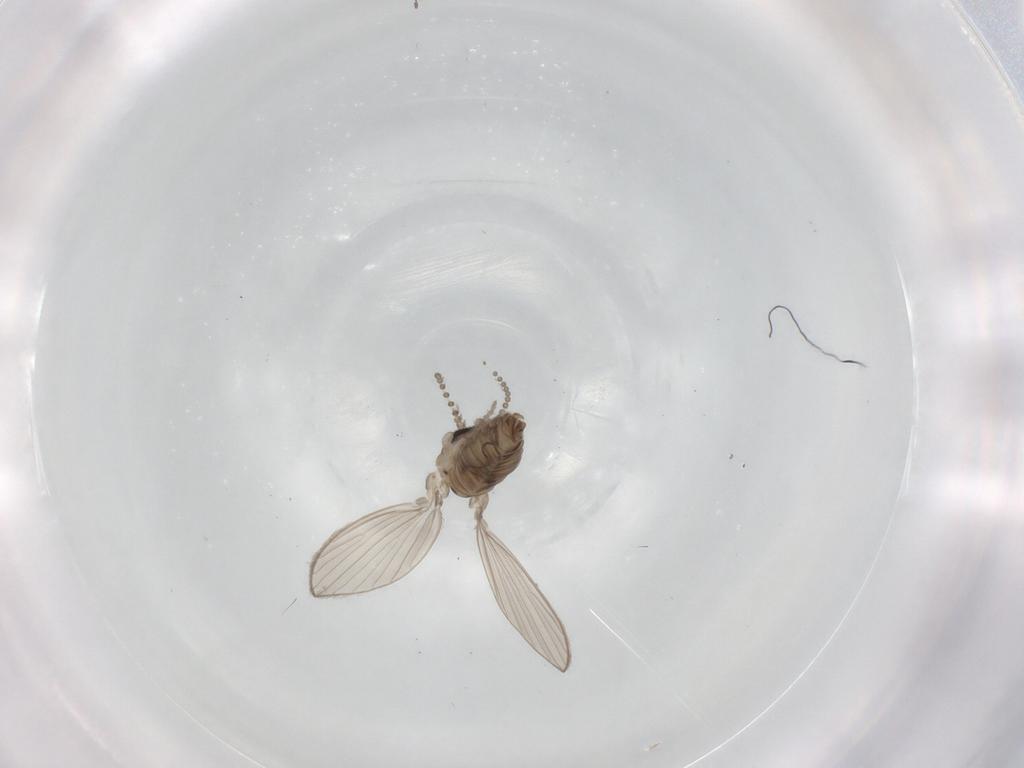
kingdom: Animalia
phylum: Arthropoda
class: Insecta
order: Diptera
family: Psychodidae
